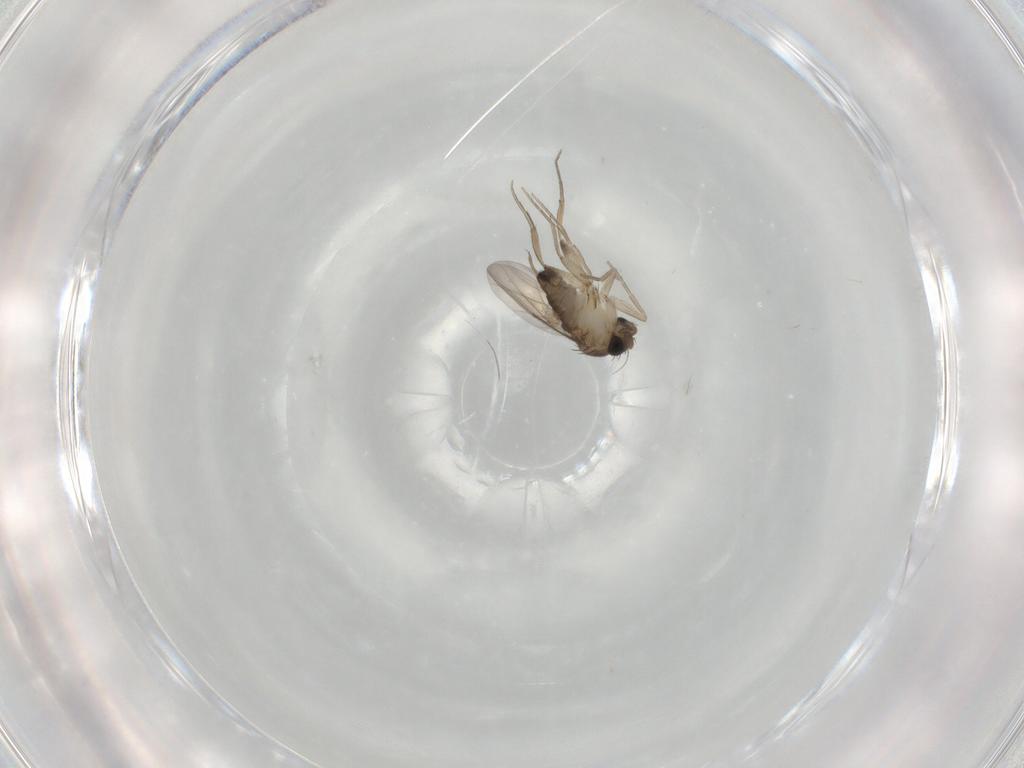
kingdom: Animalia
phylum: Arthropoda
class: Insecta
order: Diptera
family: Phoridae
